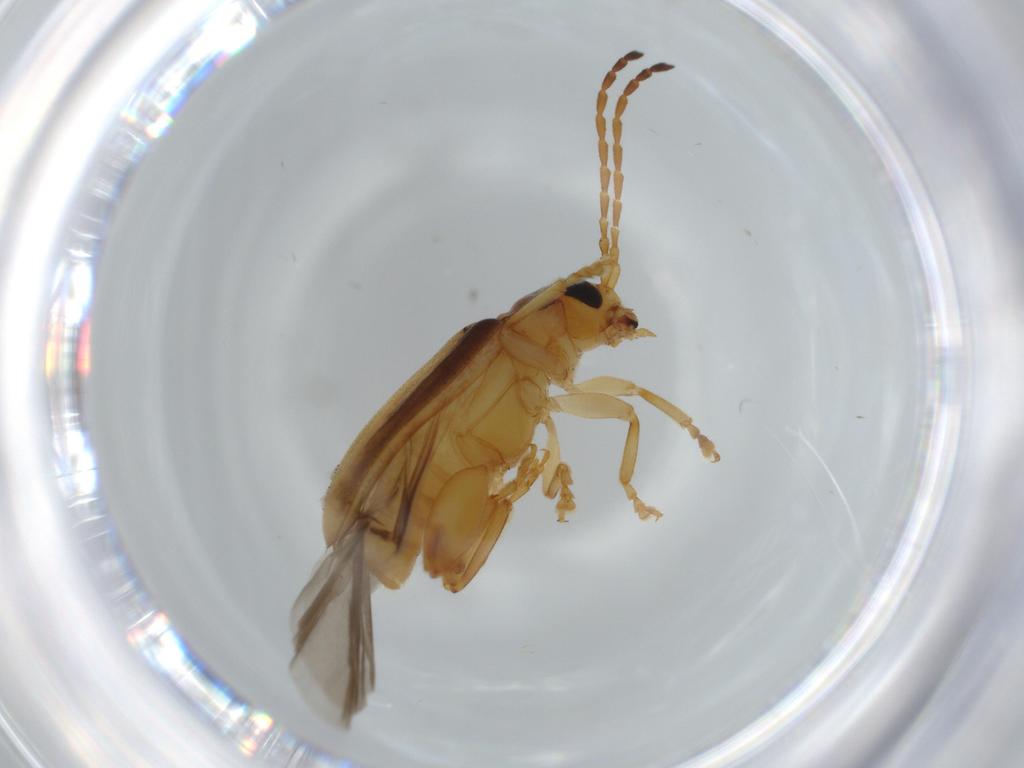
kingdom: Animalia
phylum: Arthropoda
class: Insecta
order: Coleoptera
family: Chrysomelidae
